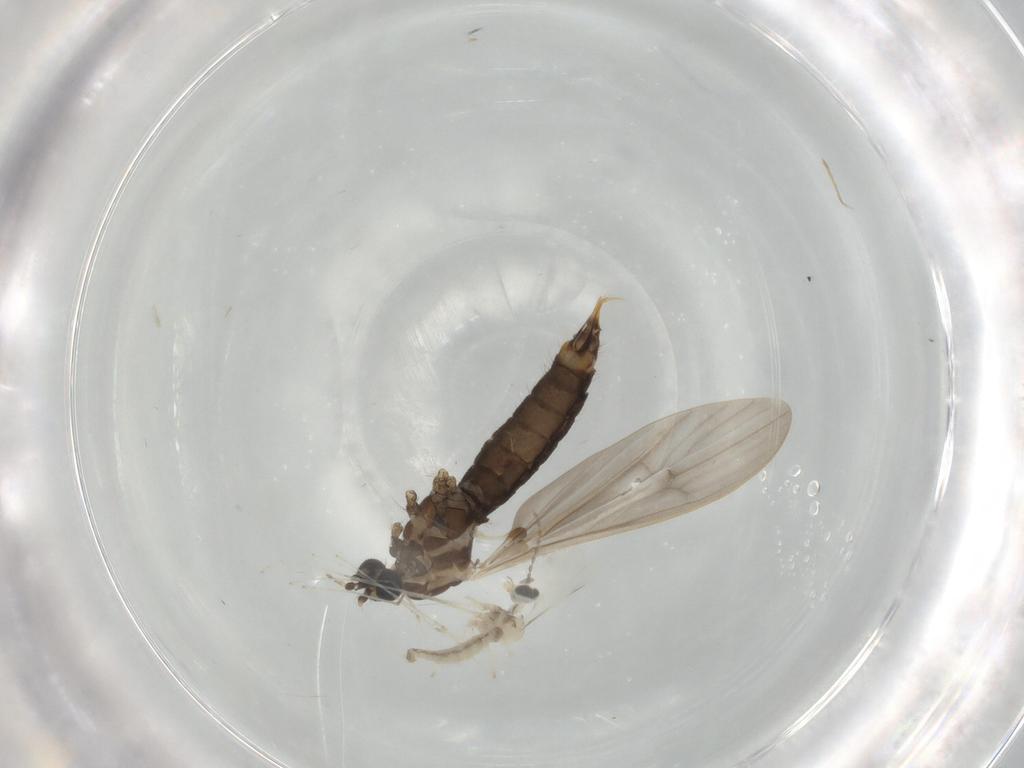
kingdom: Animalia
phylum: Arthropoda
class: Insecta
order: Diptera
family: Limoniidae
